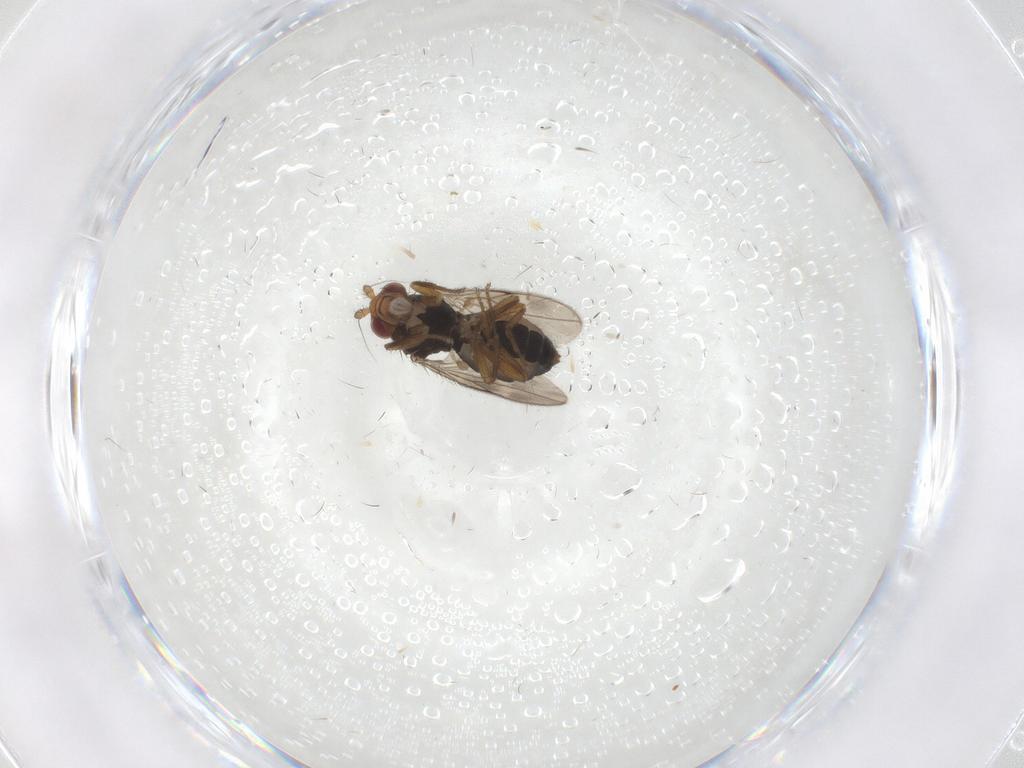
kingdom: Animalia
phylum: Arthropoda
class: Insecta
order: Diptera
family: Sphaeroceridae
